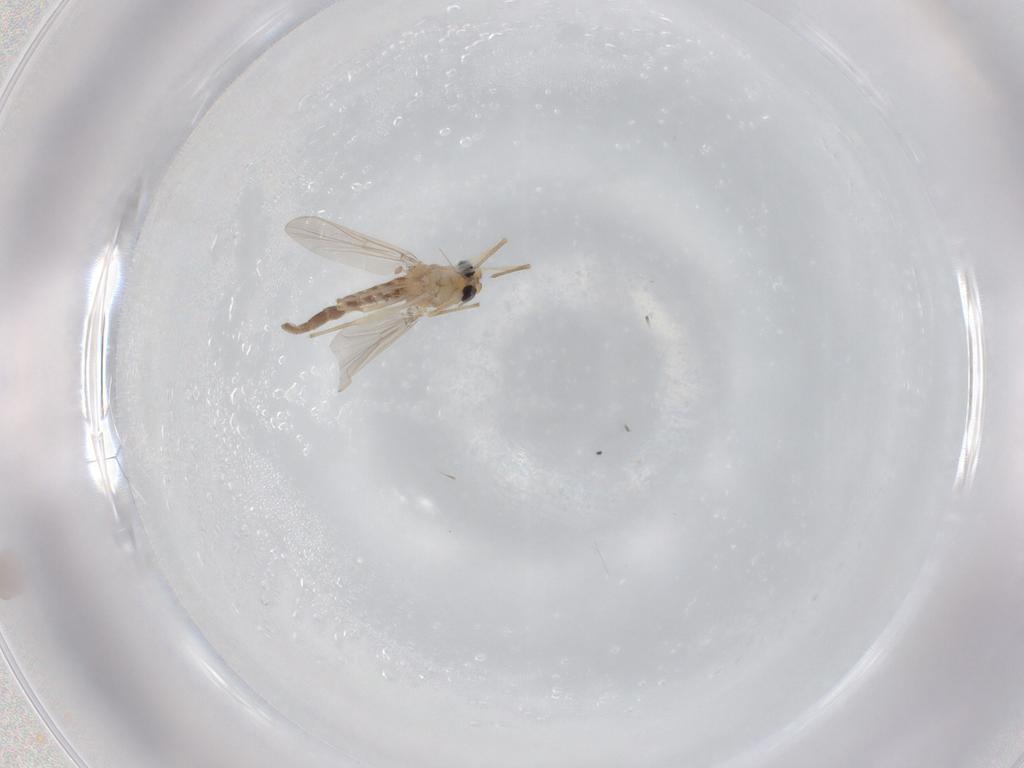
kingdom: Animalia
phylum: Arthropoda
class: Insecta
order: Diptera
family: Chironomidae
